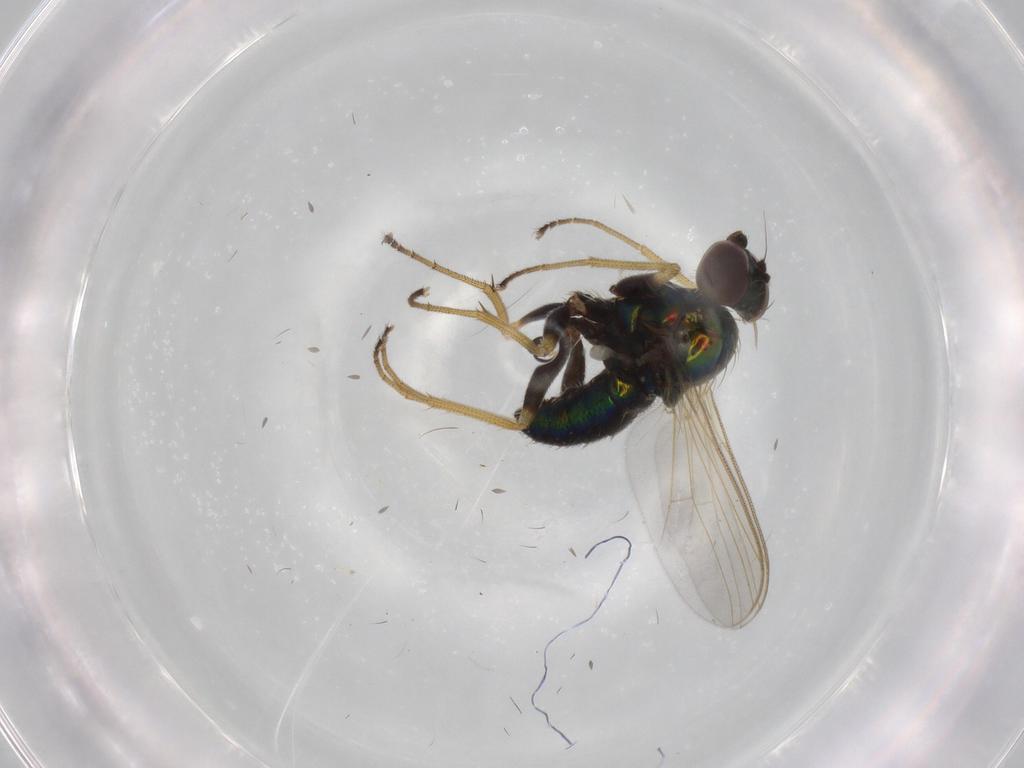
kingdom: Animalia
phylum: Arthropoda
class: Insecta
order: Diptera
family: Dolichopodidae
